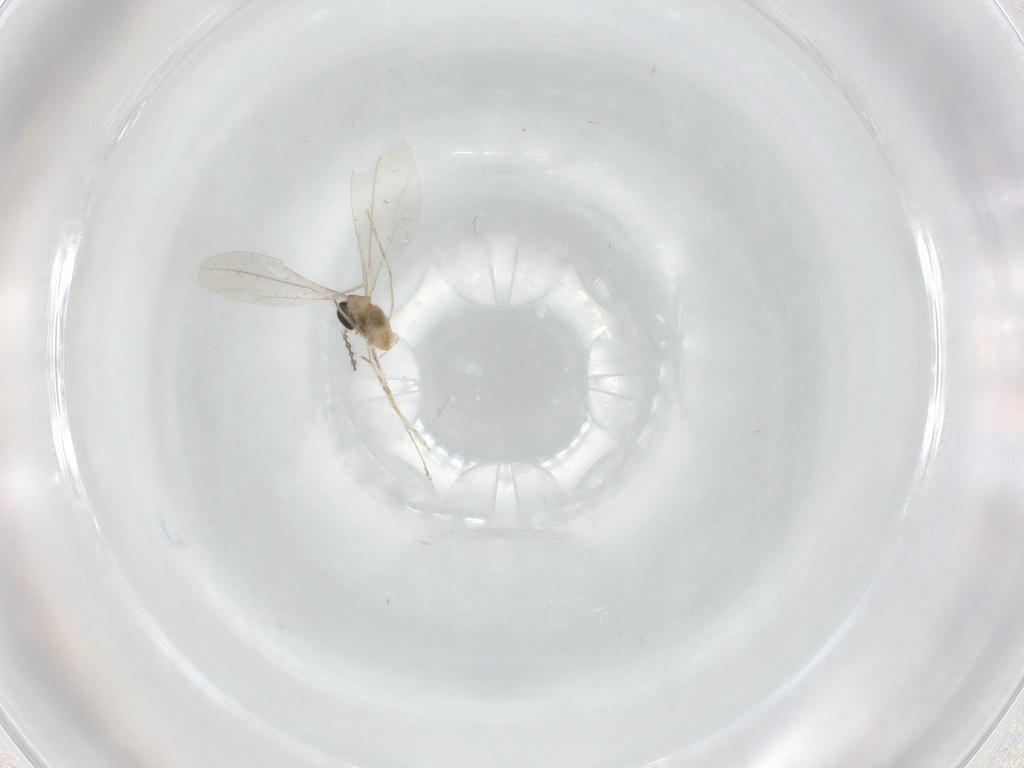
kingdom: Animalia
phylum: Arthropoda
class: Insecta
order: Diptera
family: Cecidomyiidae
